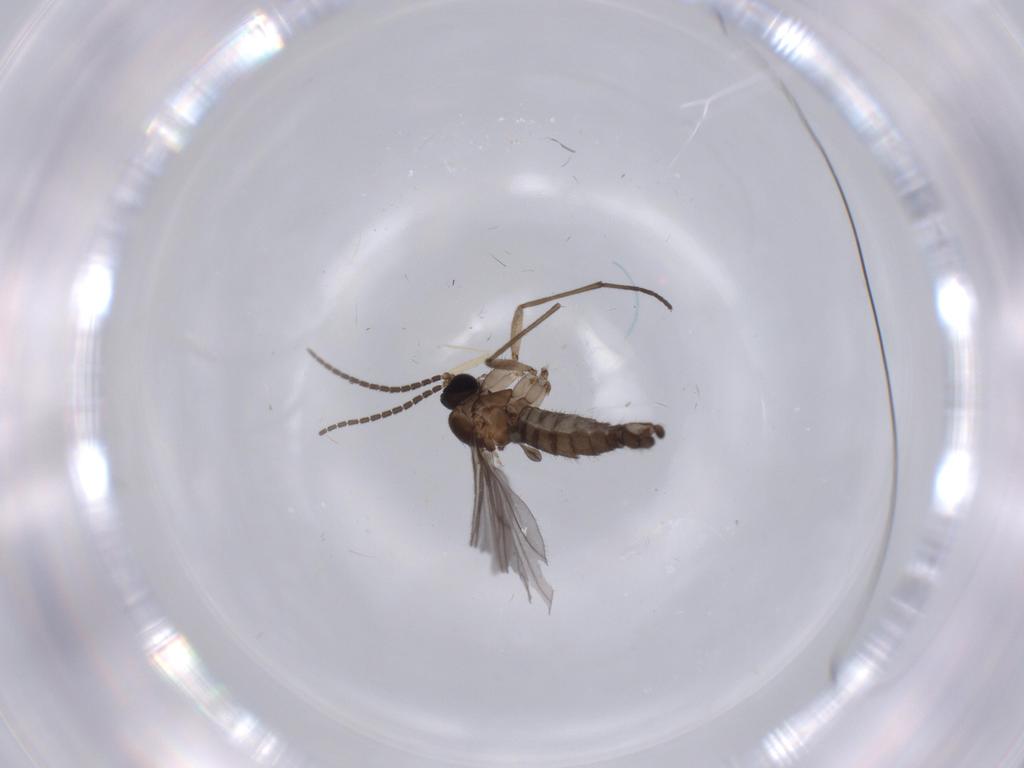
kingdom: Animalia
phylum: Arthropoda
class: Insecta
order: Diptera
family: Ceratopogonidae
